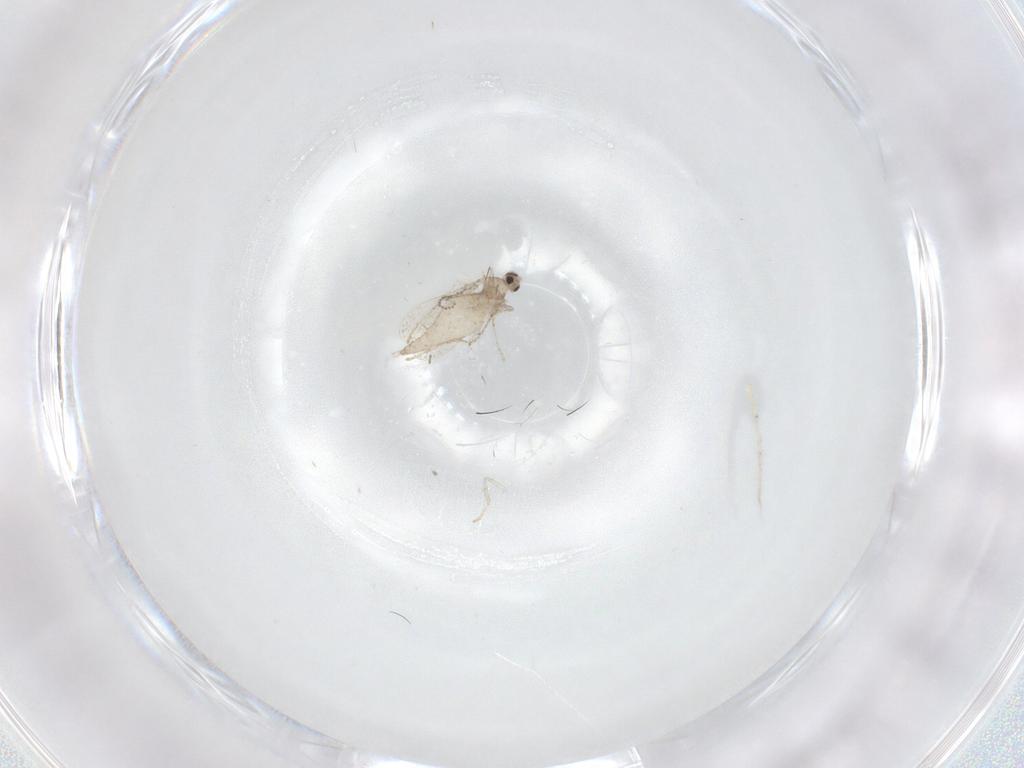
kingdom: Animalia
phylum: Arthropoda
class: Insecta
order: Diptera
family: Cecidomyiidae
